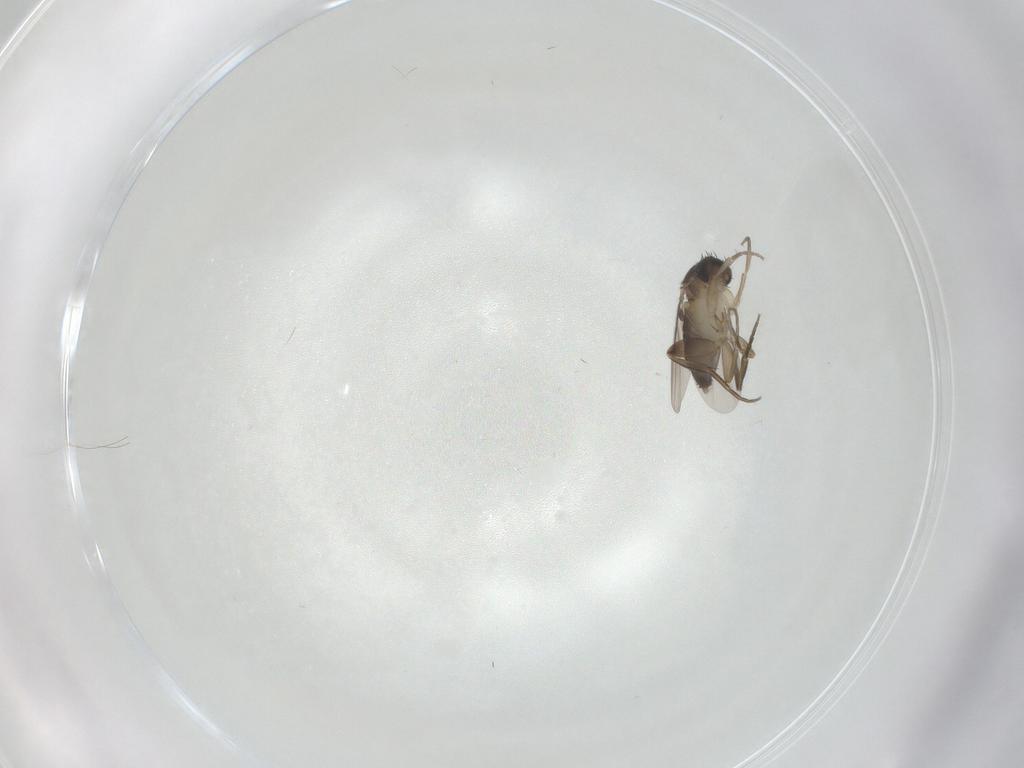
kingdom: Animalia
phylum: Arthropoda
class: Insecta
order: Diptera
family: Phoridae
